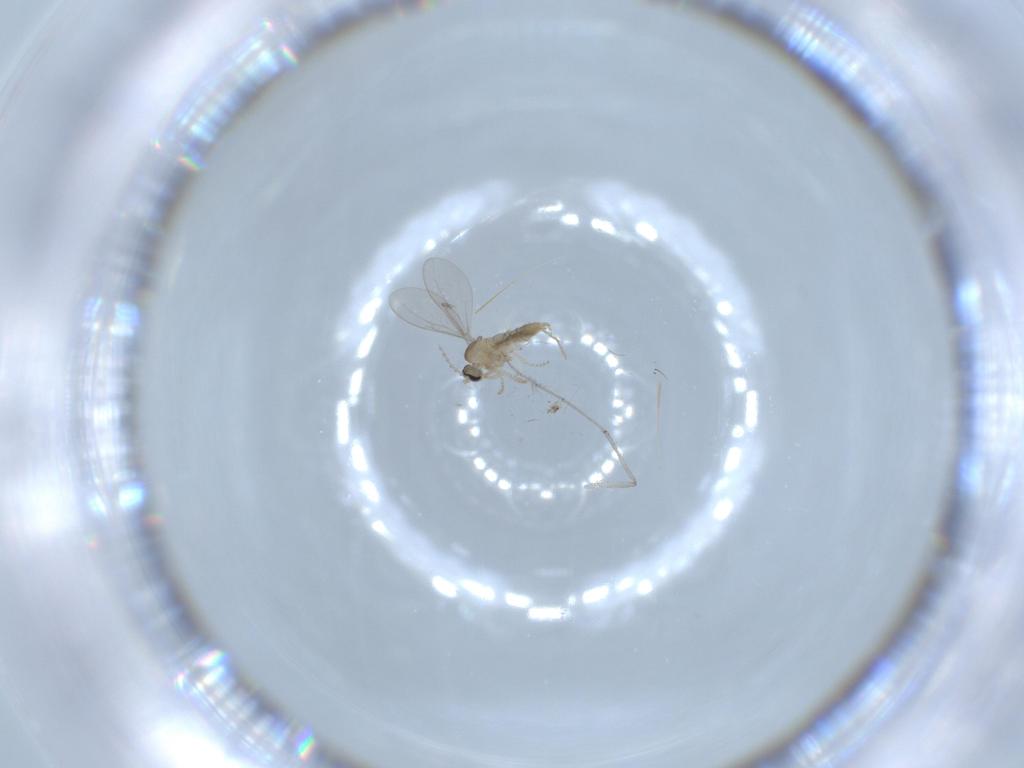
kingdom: Animalia
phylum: Arthropoda
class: Insecta
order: Diptera
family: Cecidomyiidae
